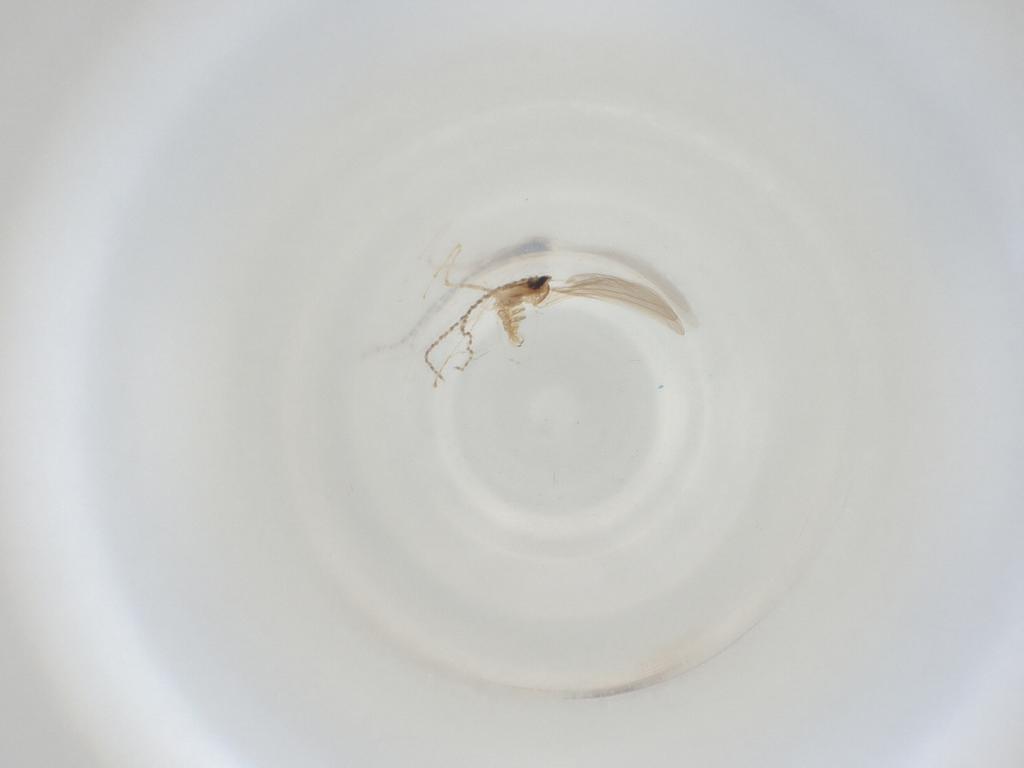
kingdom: Animalia
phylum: Arthropoda
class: Insecta
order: Diptera
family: Cecidomyiidae
